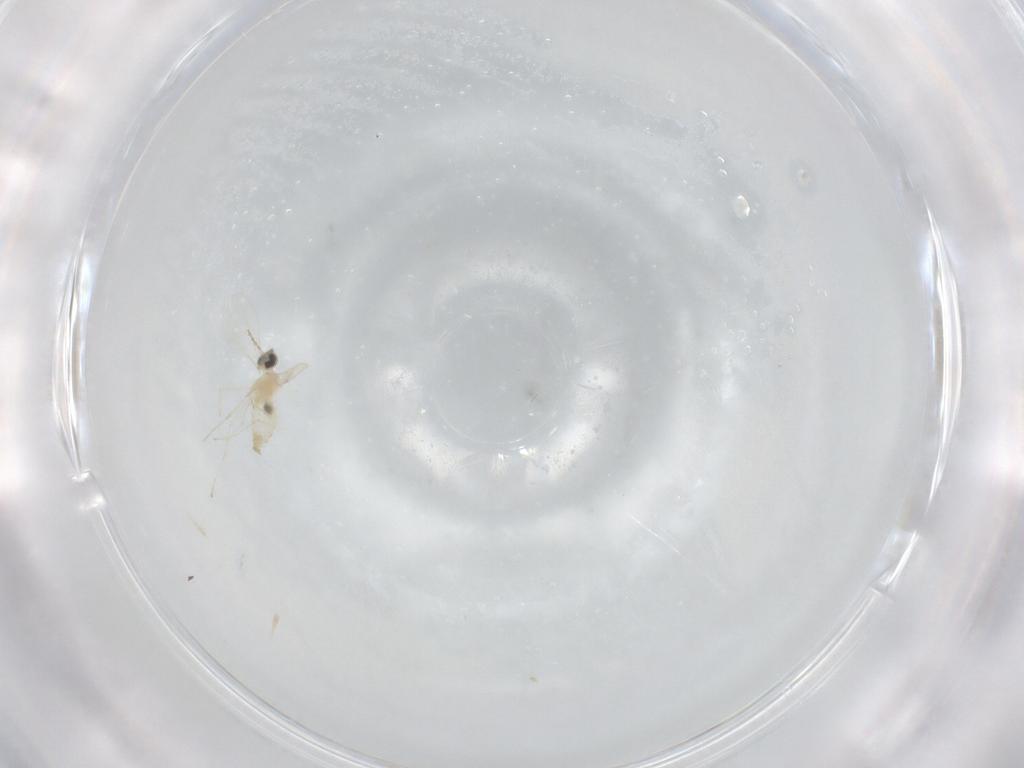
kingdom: Animalia
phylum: Arthropoda
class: Insecta
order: Diptera
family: Cecidomyiidae
